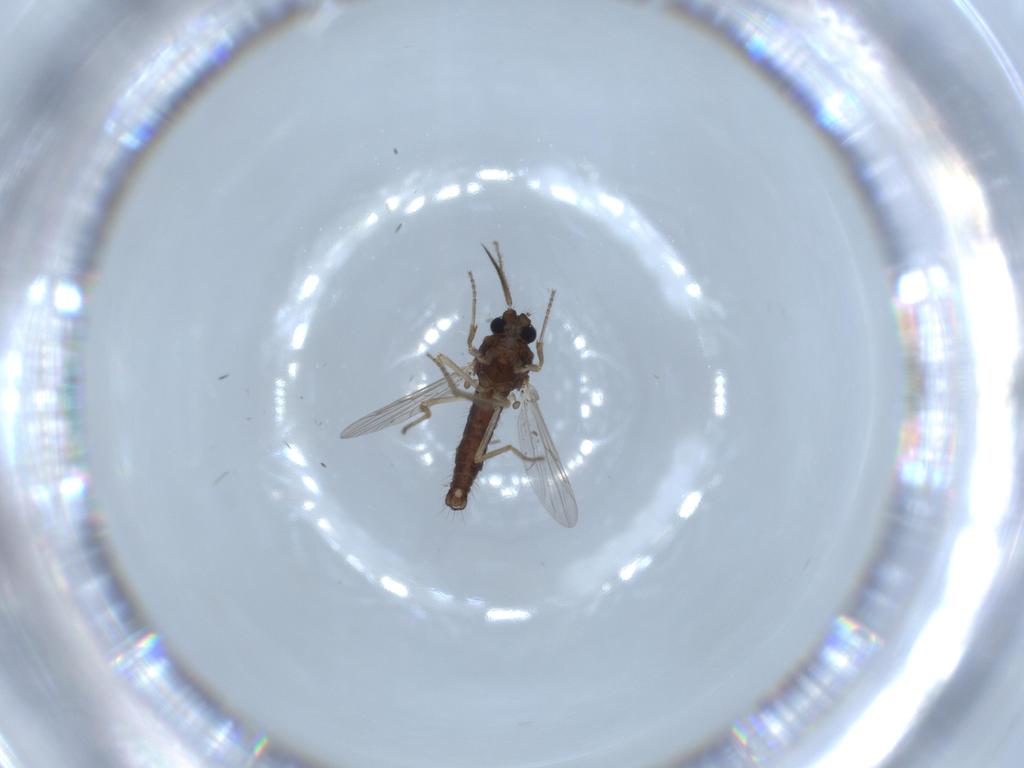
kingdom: Animalia
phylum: Arthropoda
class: Insecta
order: Diptera
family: Ceratopogonidae
